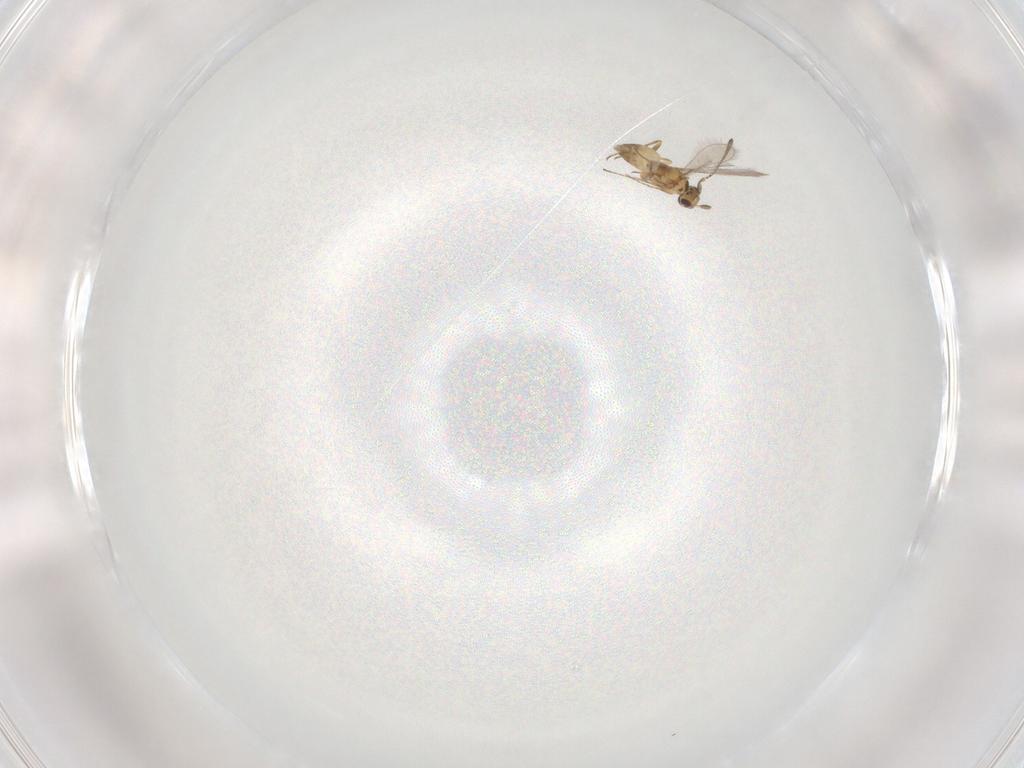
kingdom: Animalia
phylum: Arthropoda
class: Insecta
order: Hymenoptera
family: Mymaridae
